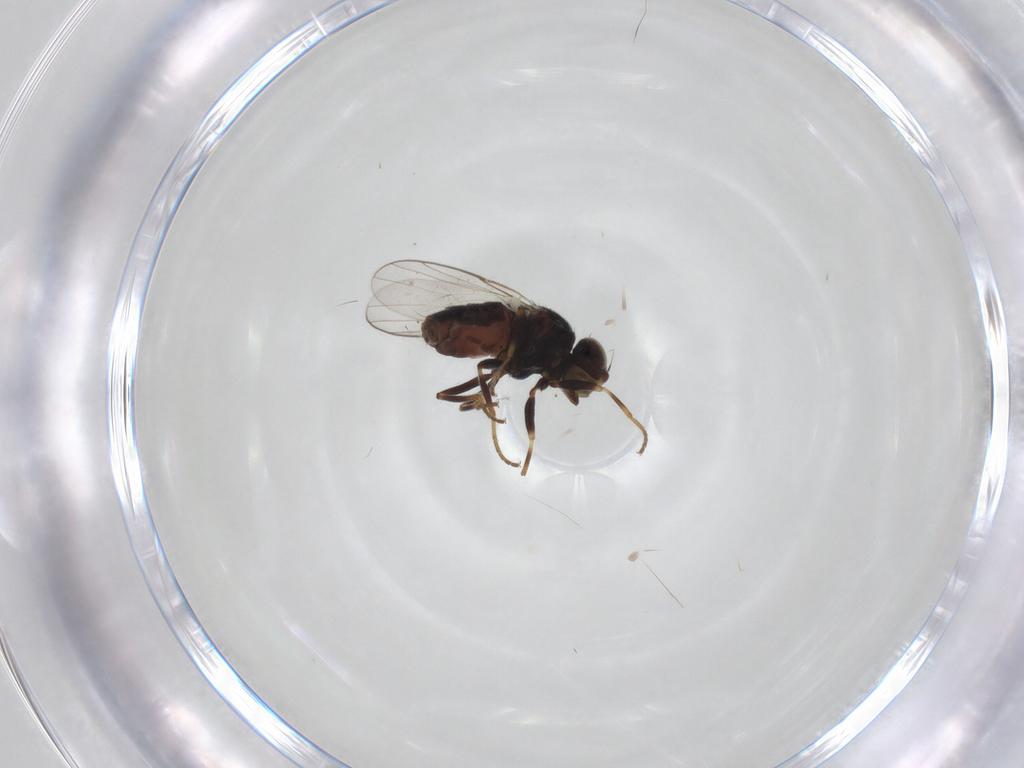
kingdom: Animalia
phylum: Arthropoda
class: Insecta
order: Diptera
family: Chloropidae
